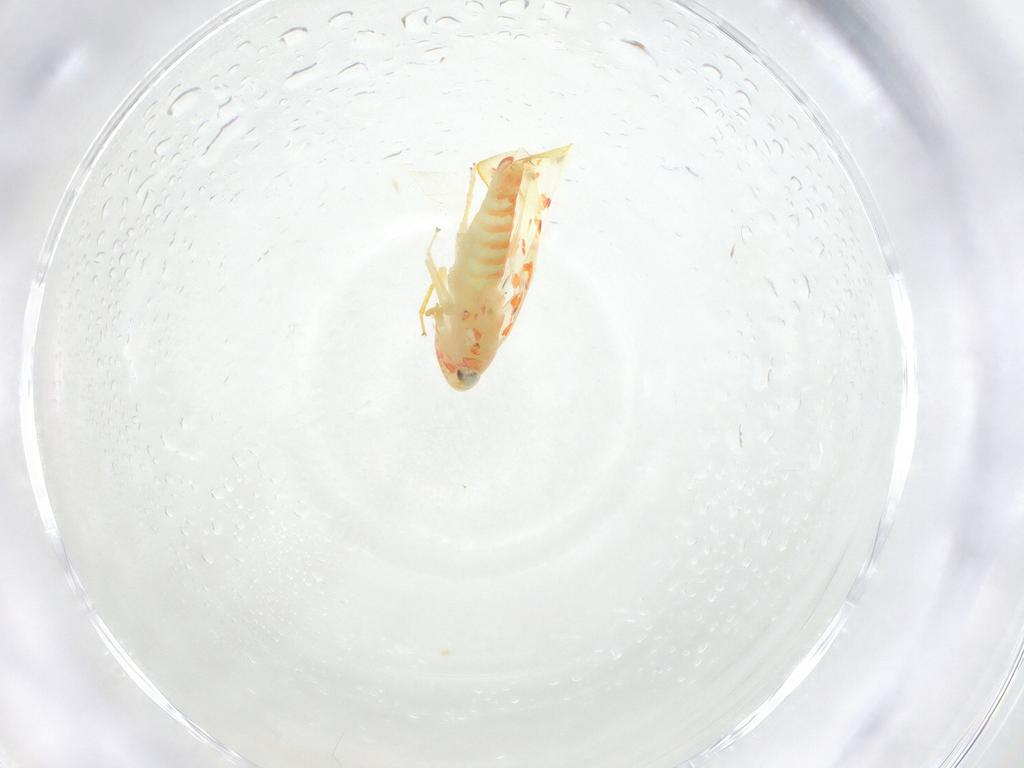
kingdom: Animalia
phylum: Arthropoda
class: Insecta
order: Hemiptera
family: Cicadellidae
